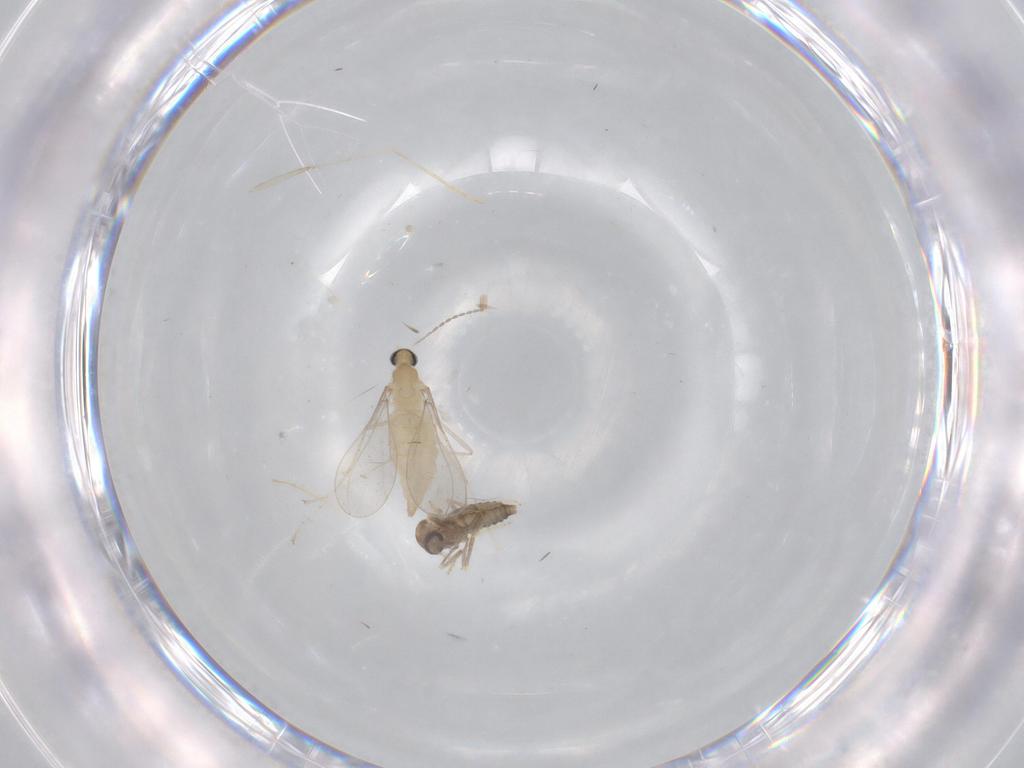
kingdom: Animalia
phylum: Arthropoda
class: Insecta
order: Diptera
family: Cecidomyiidae
